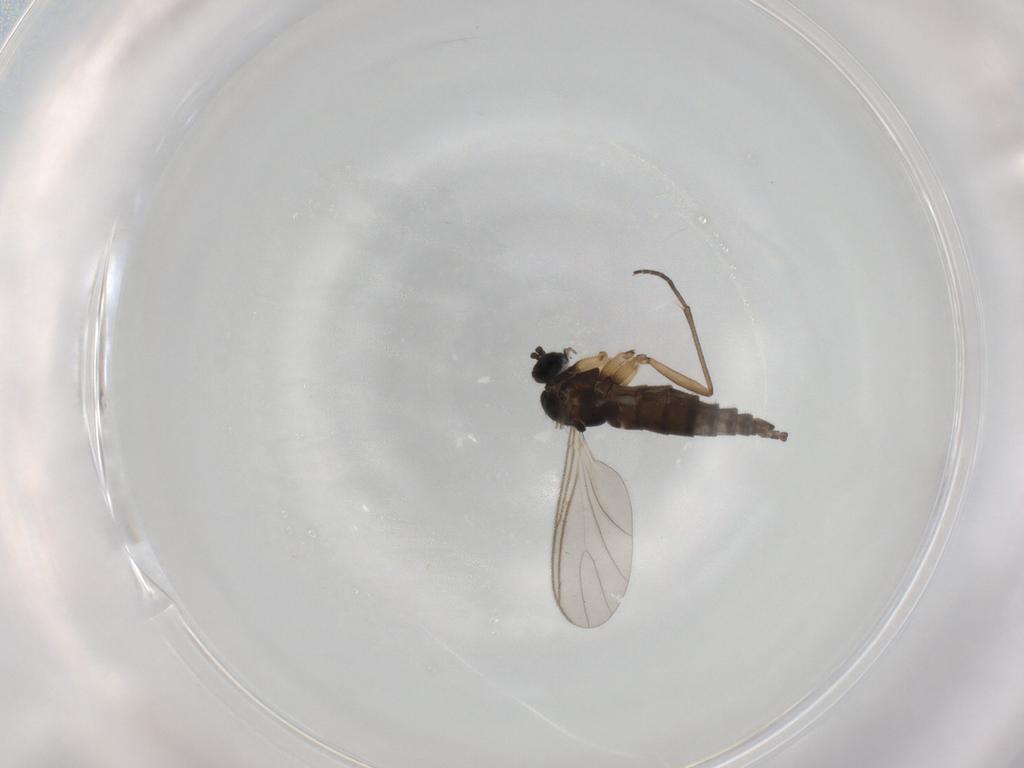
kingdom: Animalia
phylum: Arthropoda
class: Insecta
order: Diptera
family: Sciaridae
